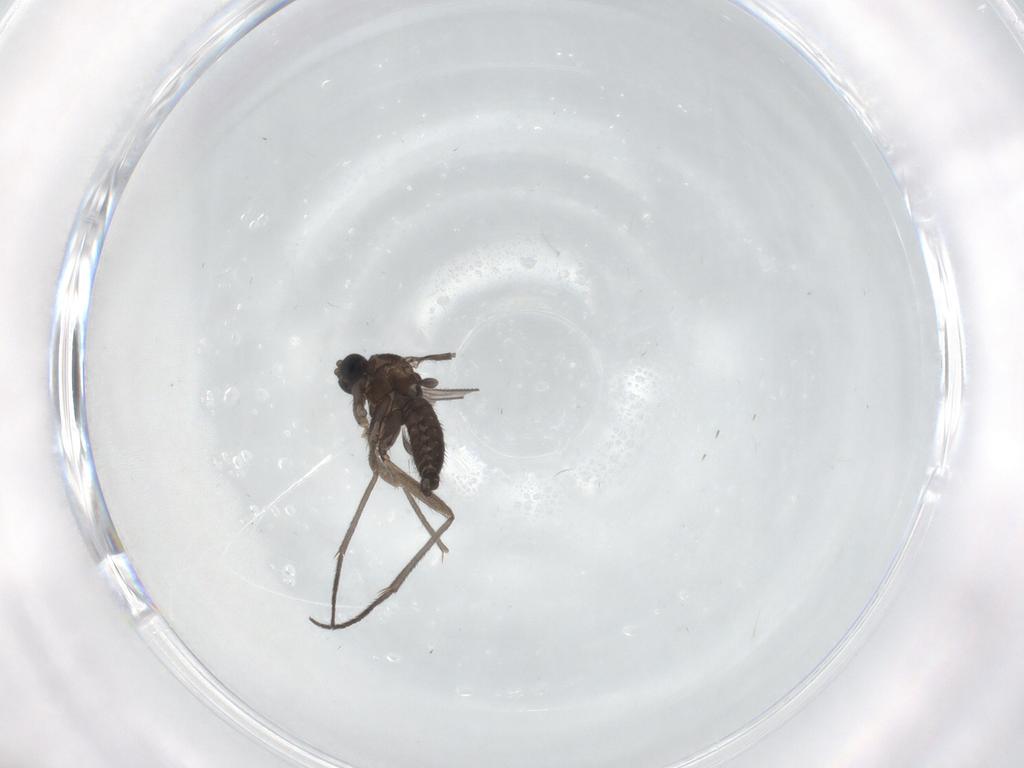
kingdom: Animalia
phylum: Arthropoda
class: Insecta
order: Diptera
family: Sciaridae
